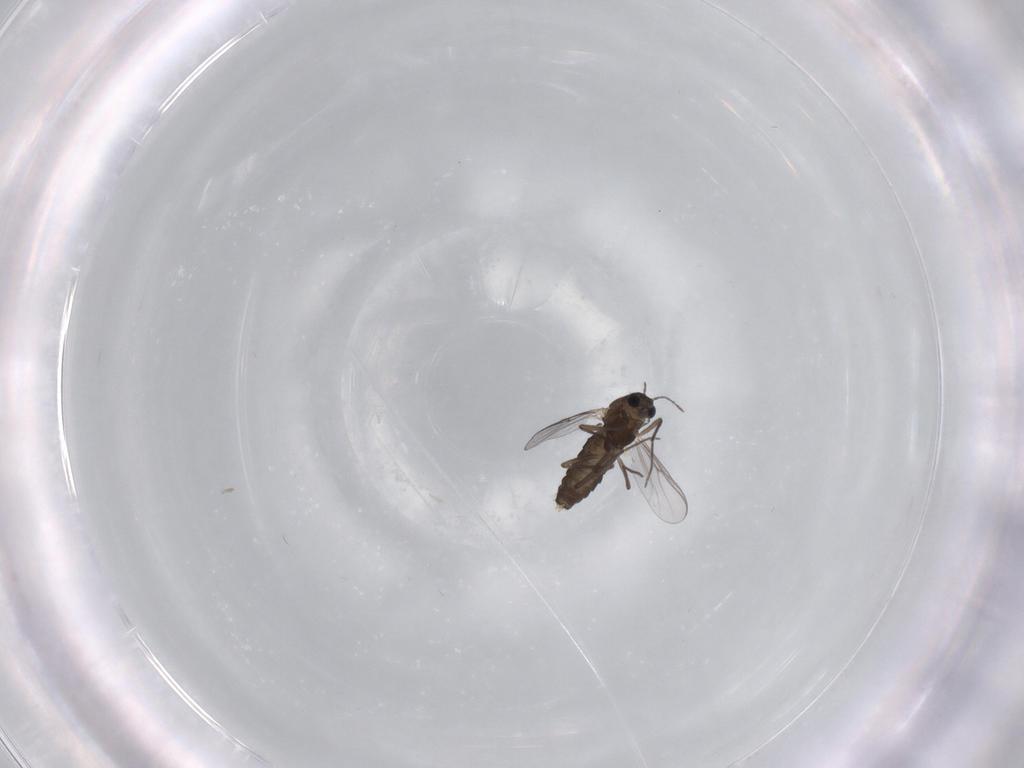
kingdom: Animalia
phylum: Arthropoda
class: Insecta
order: Diptera
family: Chironomidae
